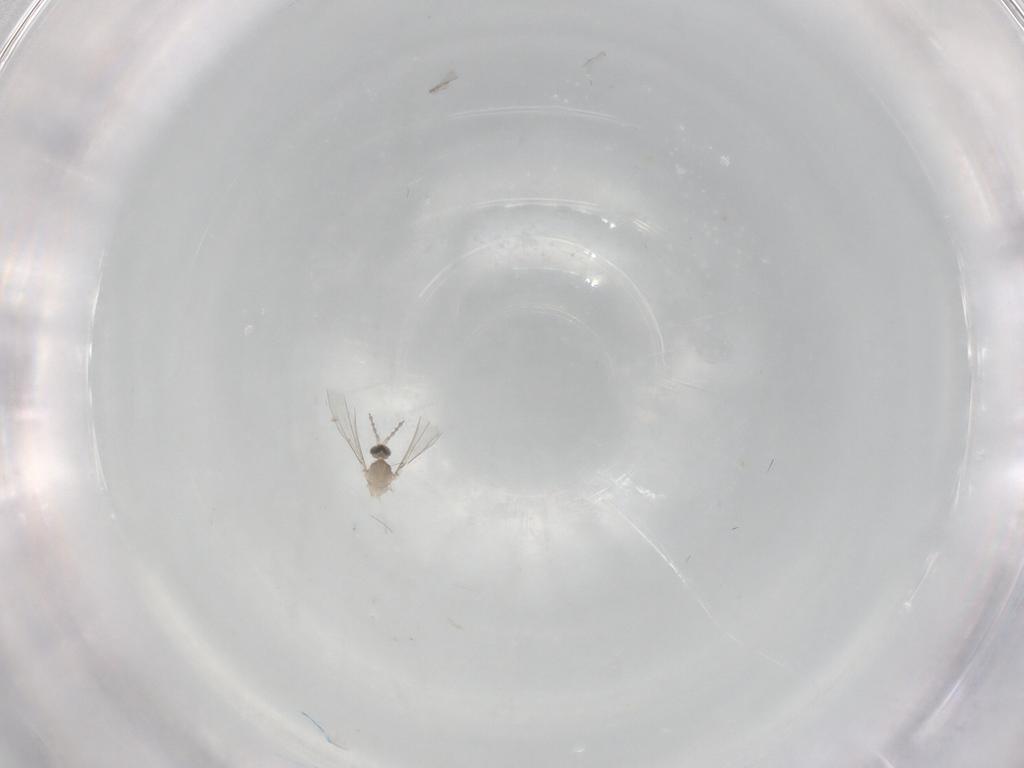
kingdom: Animalia
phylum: Arthropoda
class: Insecta
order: Diptera
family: Cecidomyiidae
